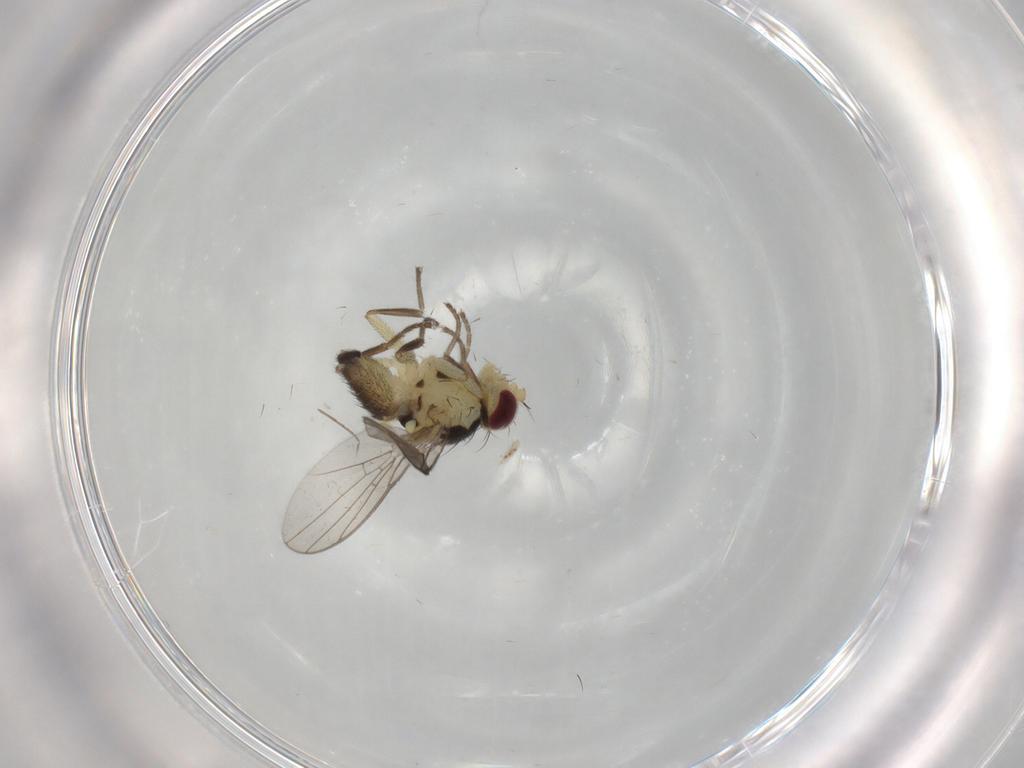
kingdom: Animalia
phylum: Arthropoda
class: Insecta
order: Diptera
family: Agromyzidae
